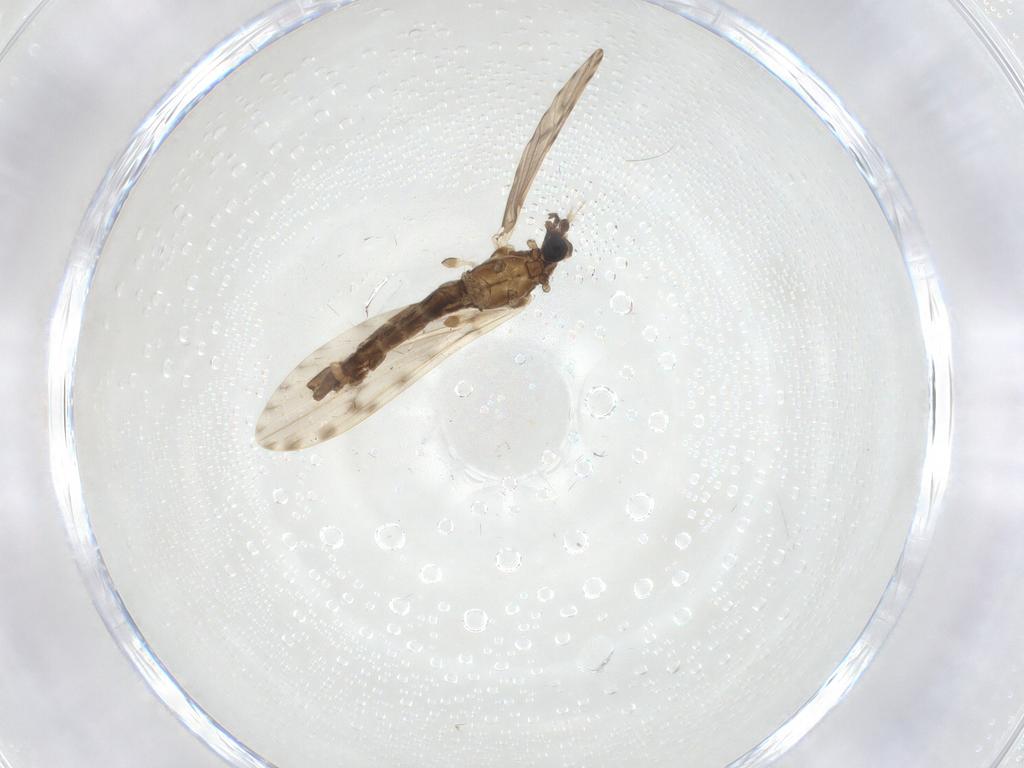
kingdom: Animalia
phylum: Arthropoda
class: Insecta
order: Diptera
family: Limoniidae
